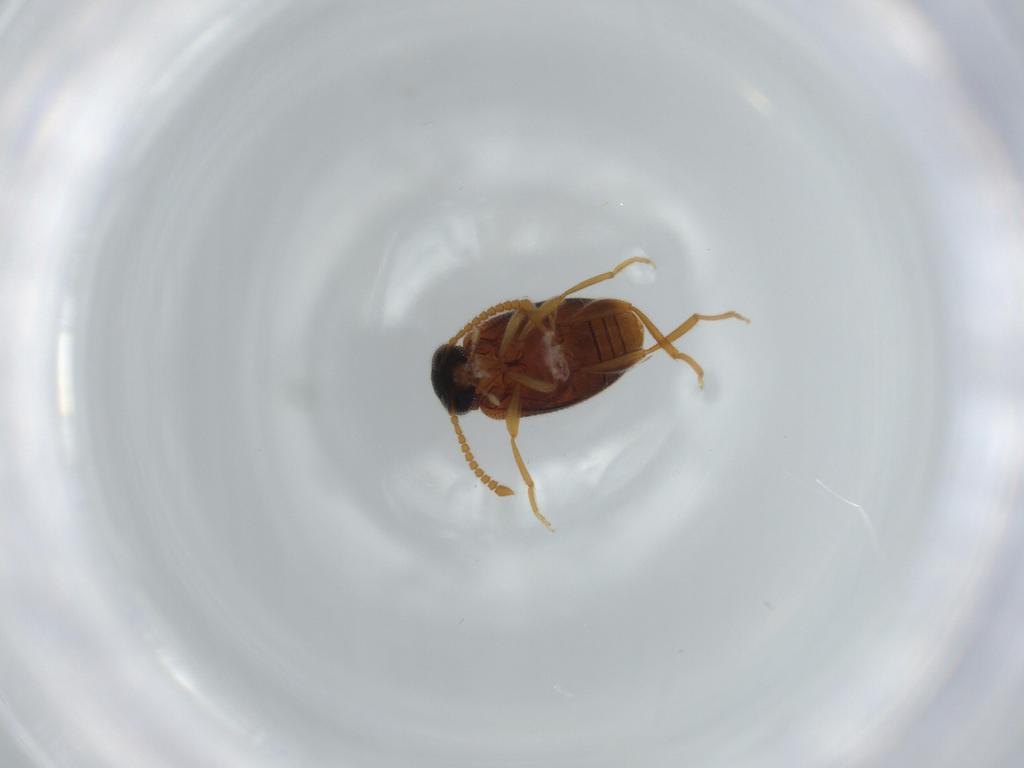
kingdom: Animalia
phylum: Arthropoda
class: Insecta
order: Coleoptera
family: Aderidae
